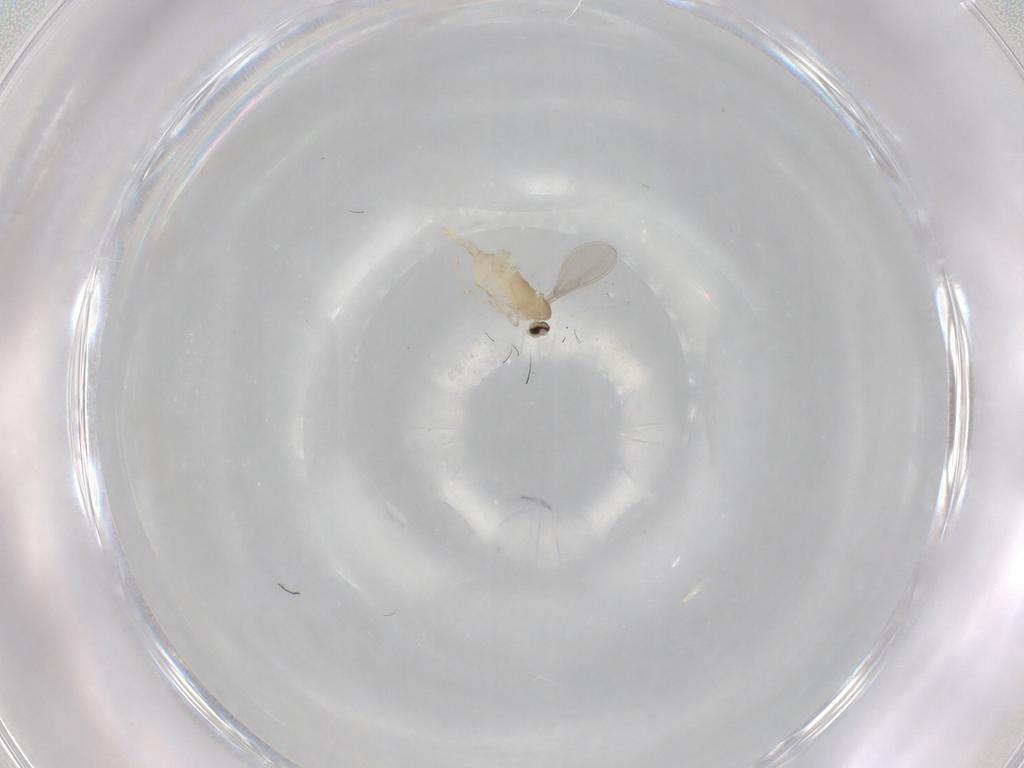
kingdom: Animalia
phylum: Arthropoda
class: Insecta
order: Diptera
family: Cecidomyiidae
